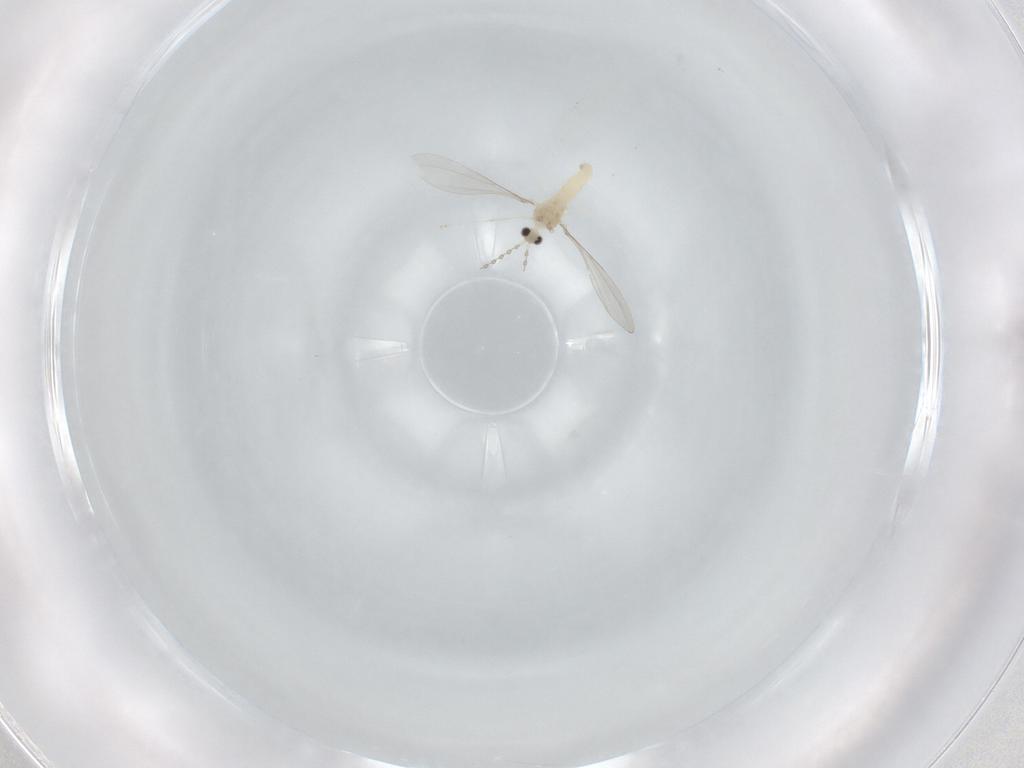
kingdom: Animalia
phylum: Arthropoda
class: Insecta
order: Diptera
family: Cecidomyiidae
